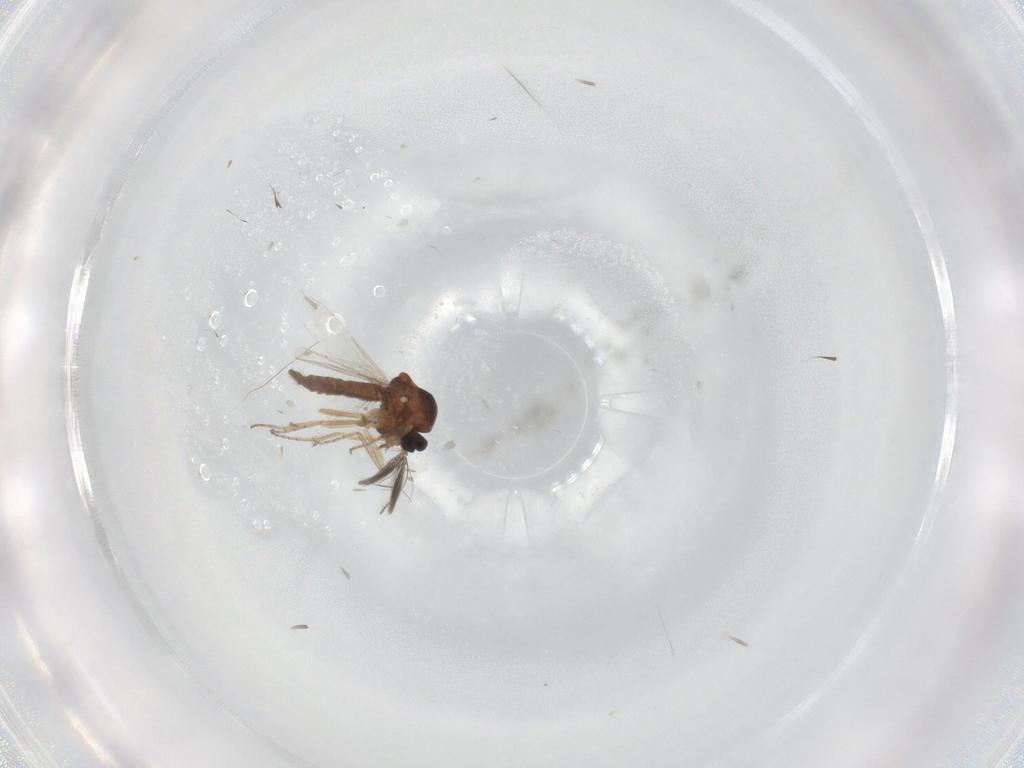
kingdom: Animalia
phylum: Arthropoda
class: Insecta
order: Diptera
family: Ceratopogonidae
